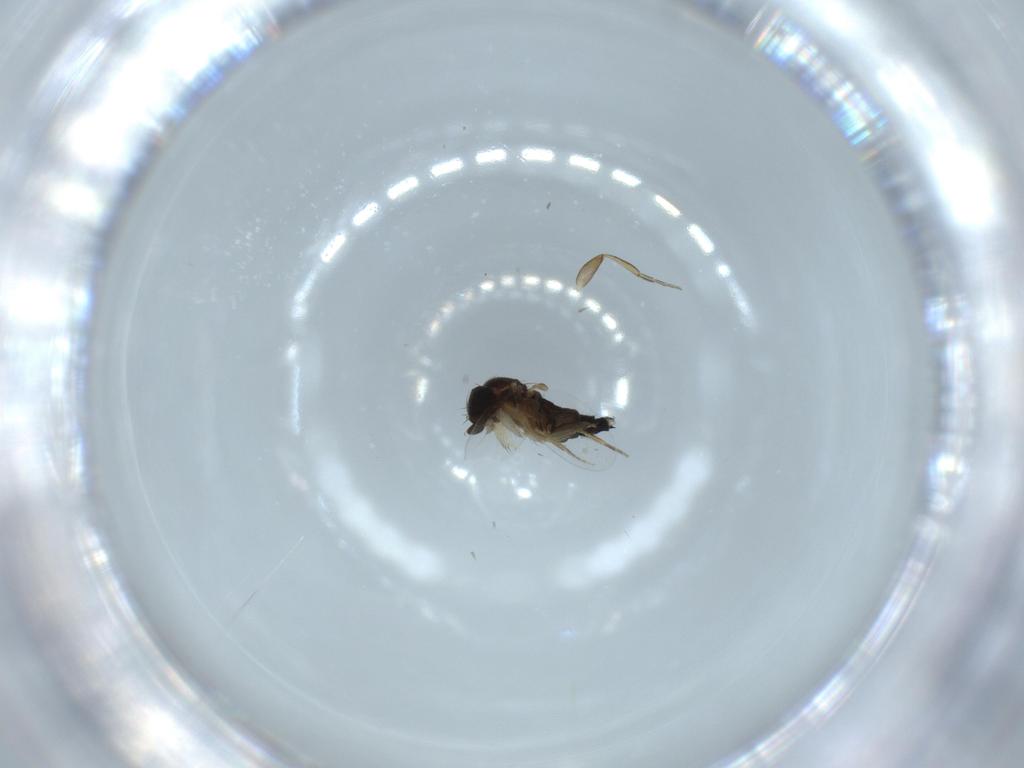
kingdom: Animalia
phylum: Arthropoda
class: Insecta
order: Diptera
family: Phoridae
